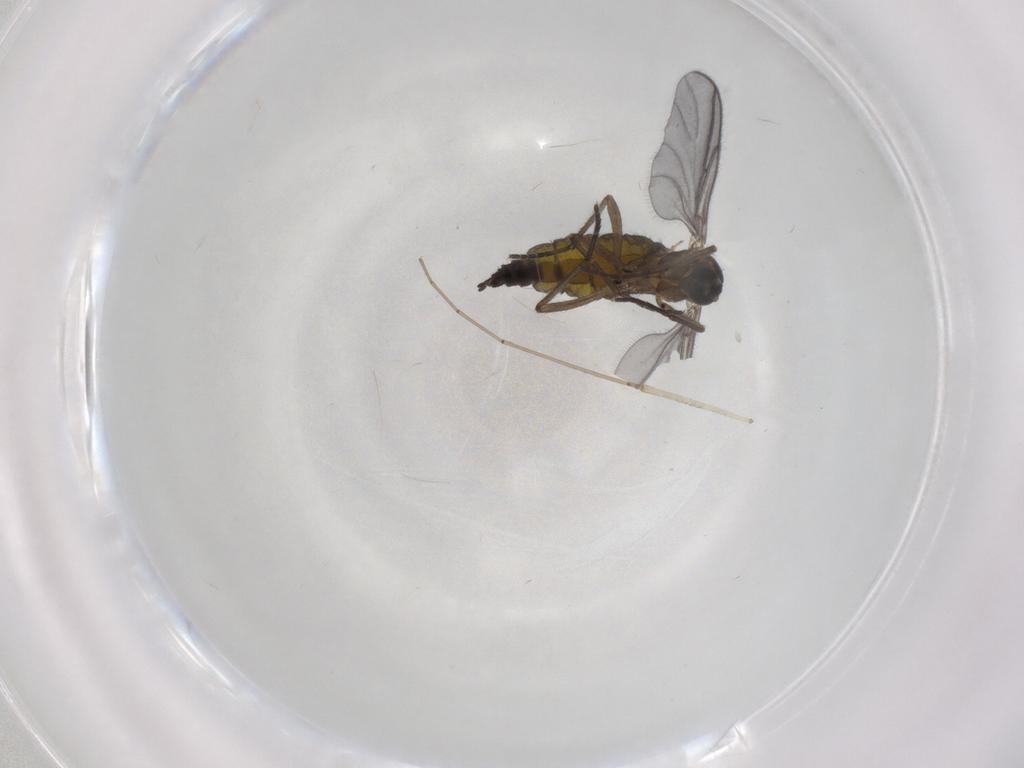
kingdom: Animalia
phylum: Arthropoda
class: Insecta
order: Diptera
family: Sciaridae
